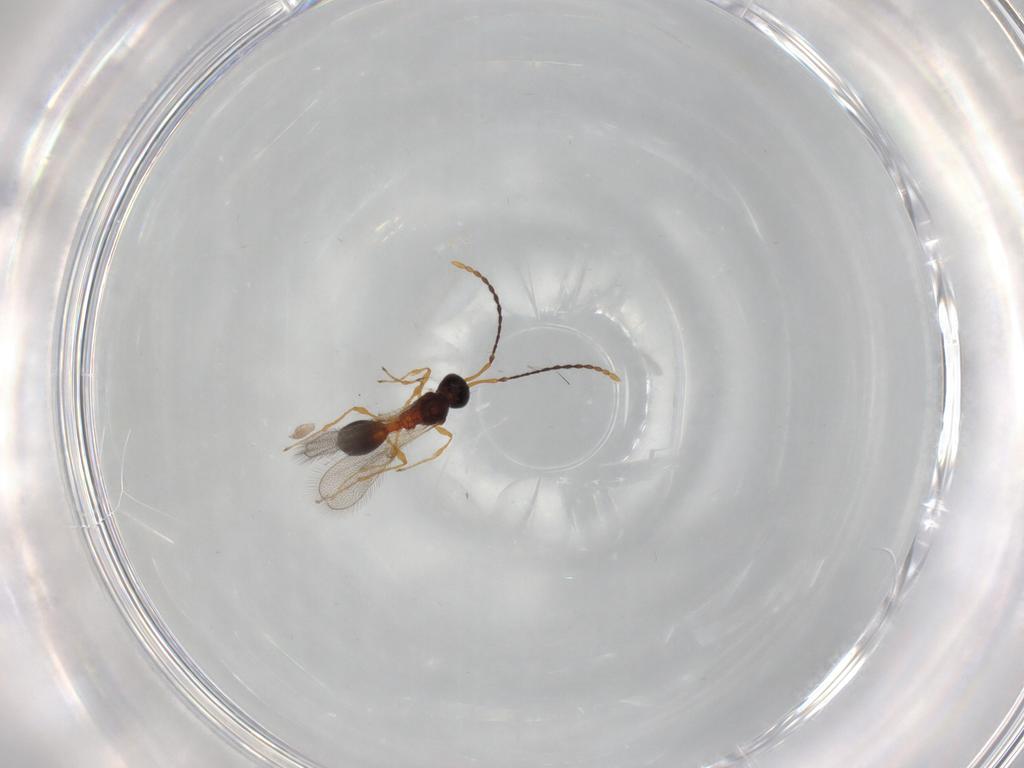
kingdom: Animalia
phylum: Arthropoda
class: Insecta
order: Hymenoptera
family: Diapriidae
